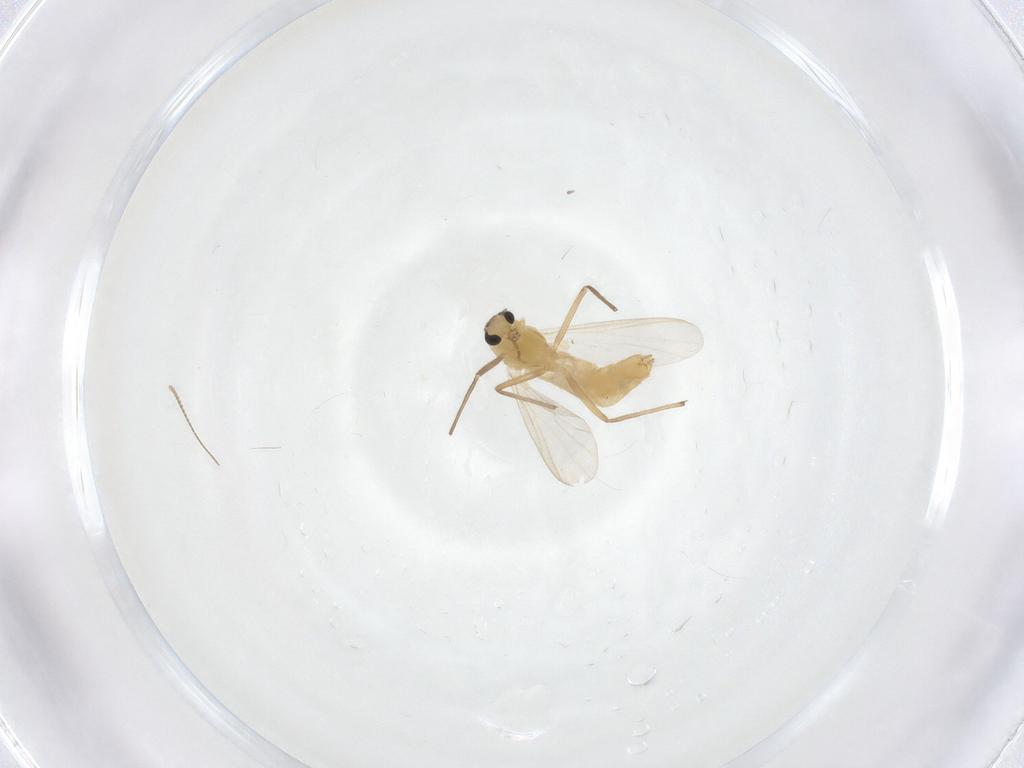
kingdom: Animalia
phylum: Arthropoda
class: Insecta
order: Diptera
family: Chironomidae
